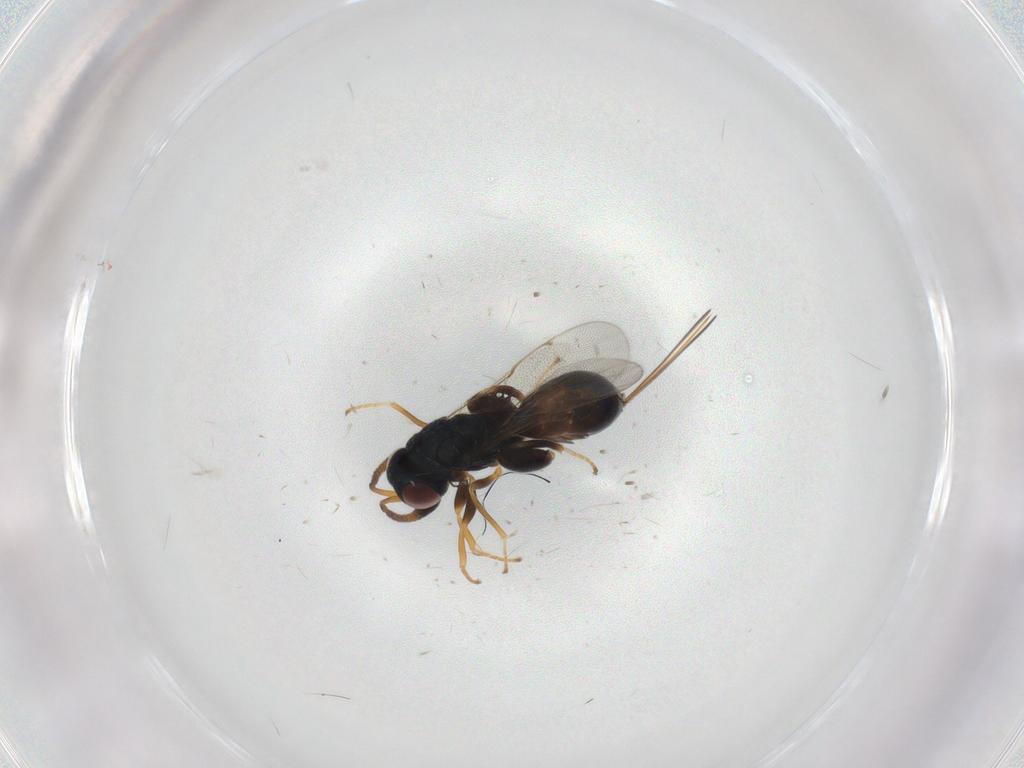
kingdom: Animalia
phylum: Arthropoda
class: Insecta
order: Hymenoptera
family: Torymidae
